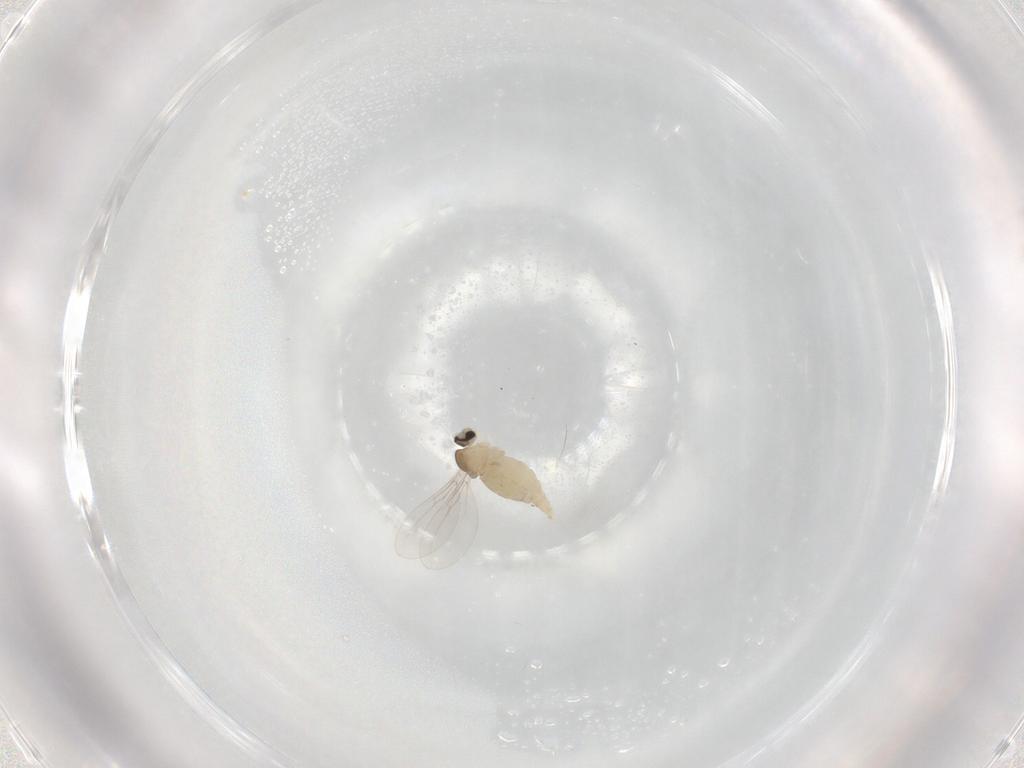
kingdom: Animalia
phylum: Arthropoda
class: Insecta
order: Diptera
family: Cecidomyiidae
